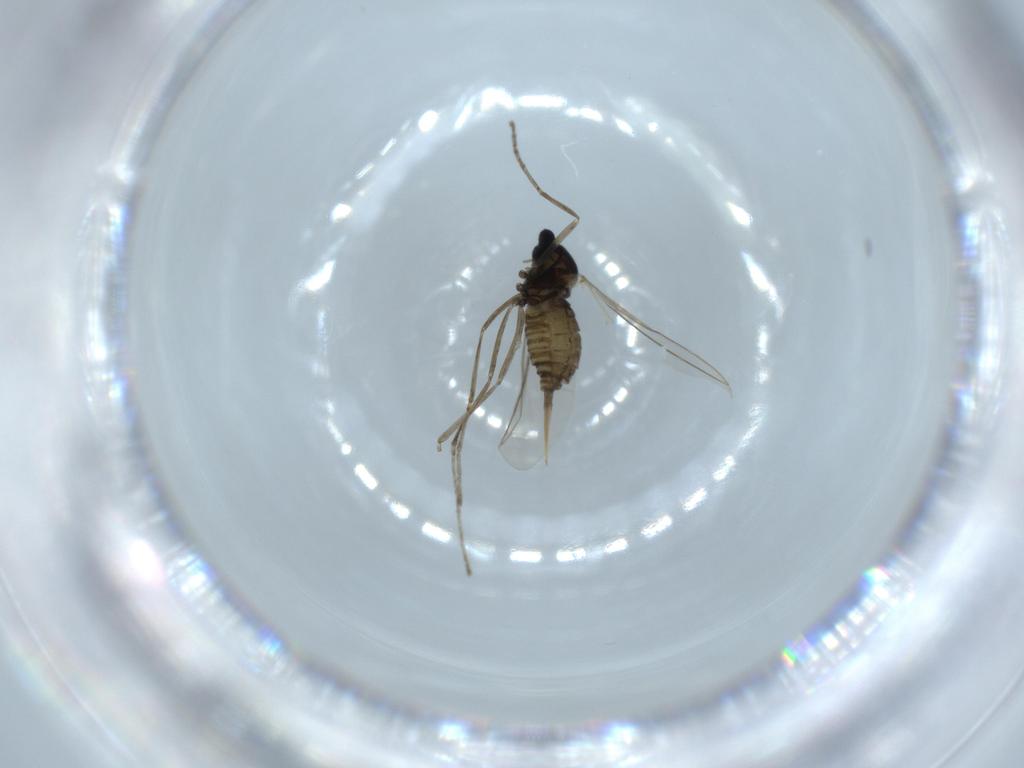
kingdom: Animalia
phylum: Arthropoda
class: Insecta
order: Diptera
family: Cecidomyiidae
